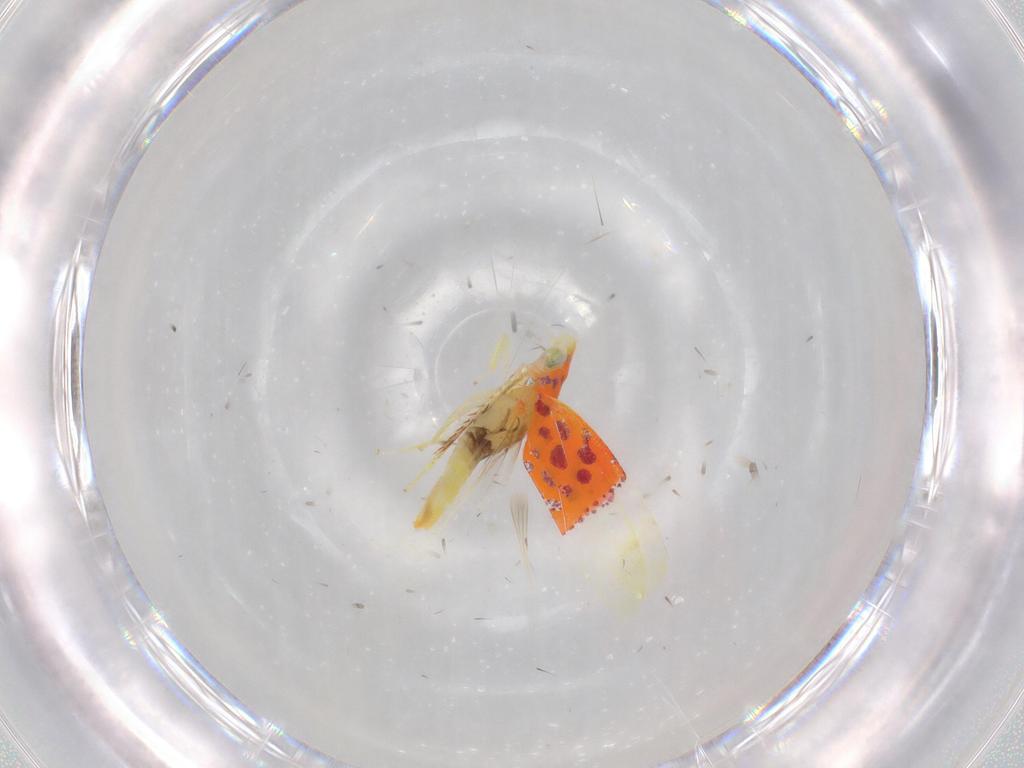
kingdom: Animalia
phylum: Arthropoda
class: Insecta
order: Hemiptera
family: Cicadellidae
